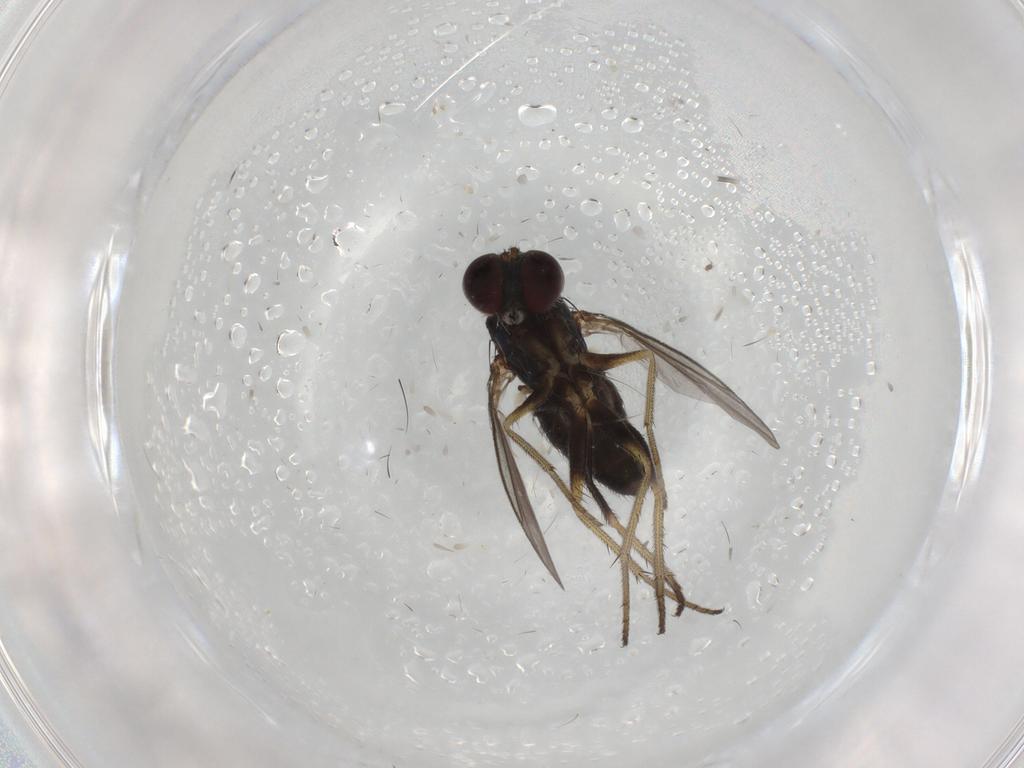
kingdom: Animalia
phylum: Arthropoda
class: Insecta
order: Diptera
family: Dolichopodidae
